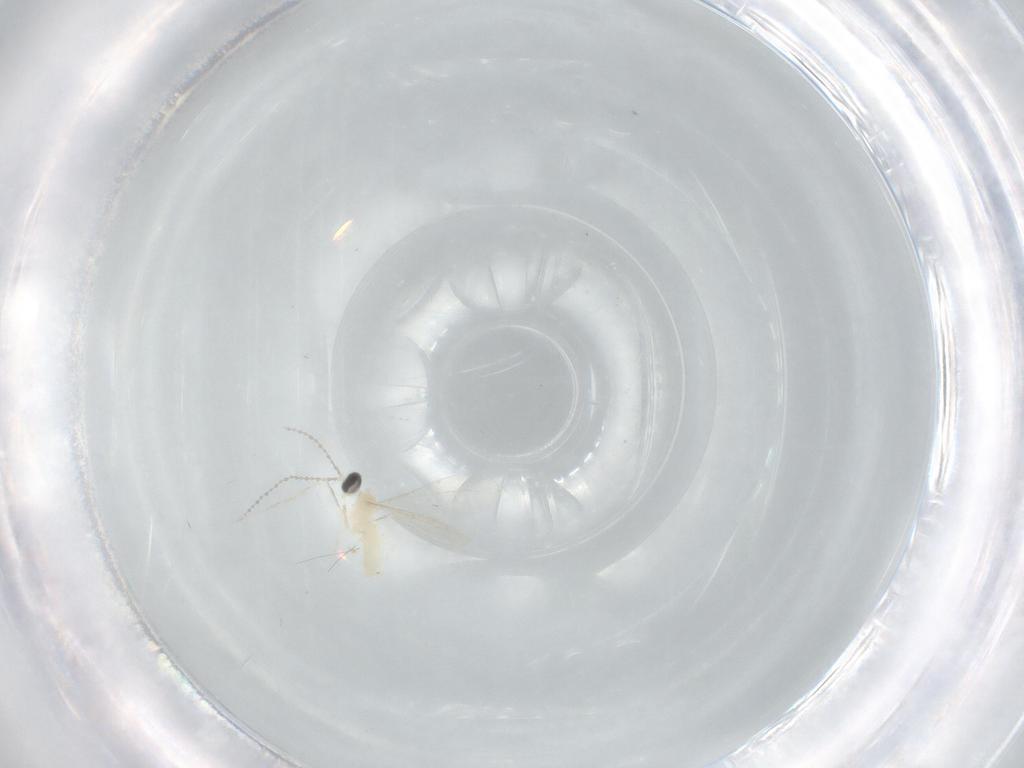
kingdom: Animalia
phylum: Arthropoda
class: Insecta
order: Diptera
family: Cecidomyiidae
